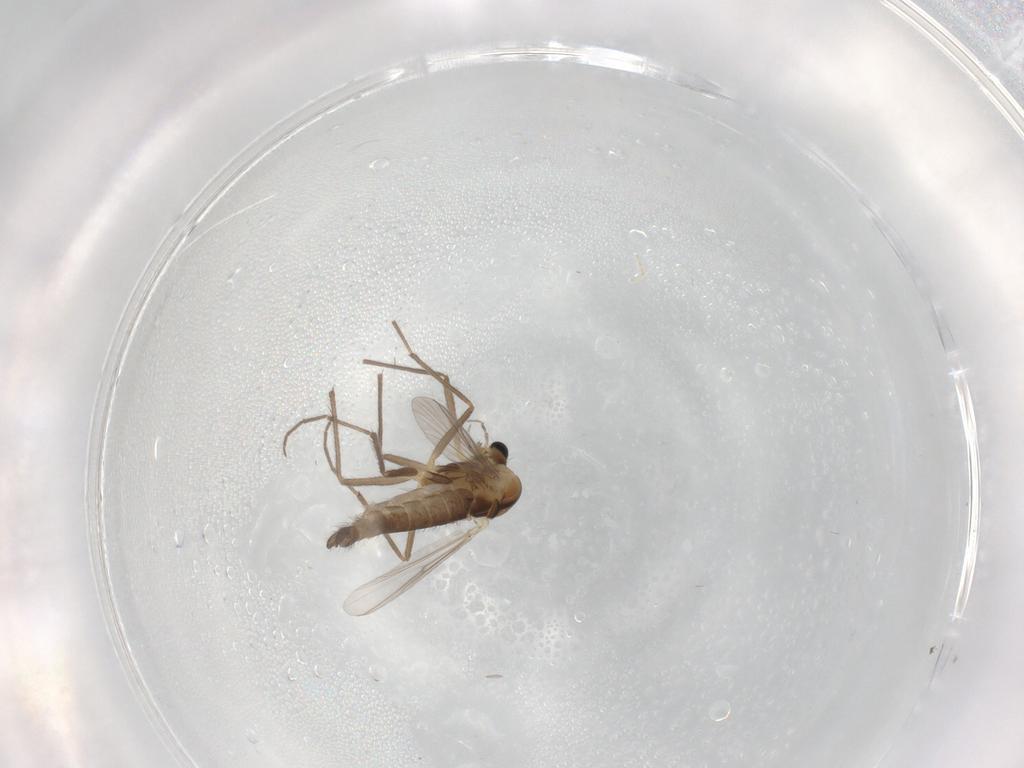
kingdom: Animalia
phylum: Arthropoda
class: Insecta
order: Diptera
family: Chironomidae
